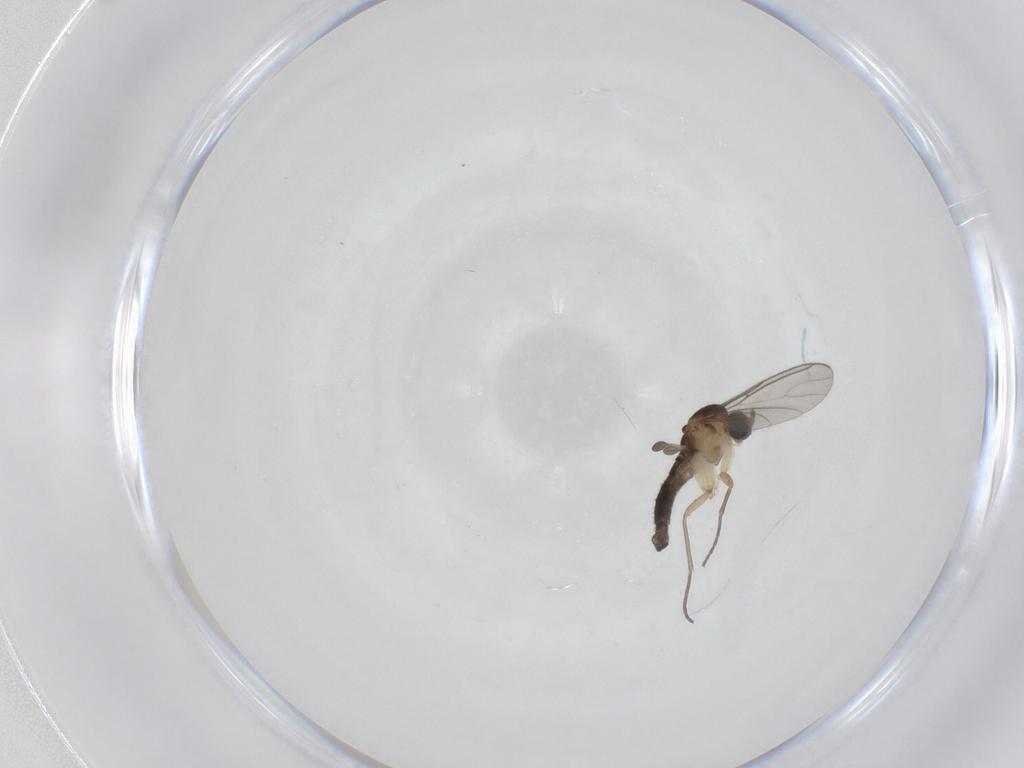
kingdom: Animalia
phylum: Arthropoda
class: Insecta
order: Diptera
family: Sciaridae
